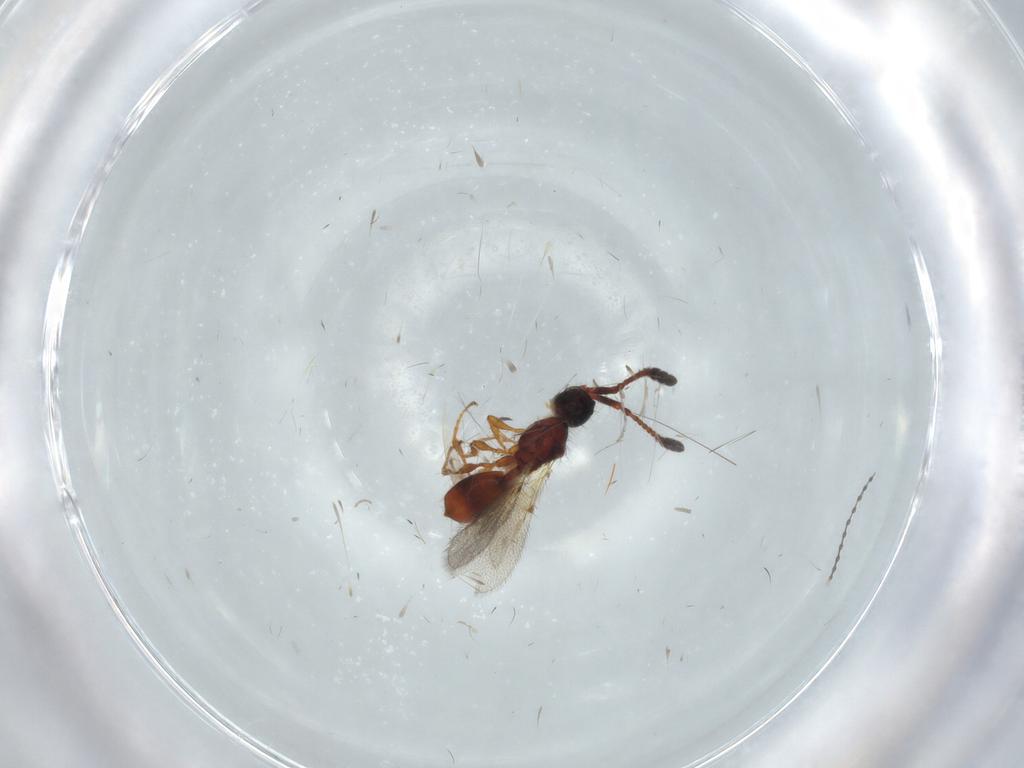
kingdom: Animalia
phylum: Arthropoda
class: Insecta
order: Hymenoptera
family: Diapriidae
